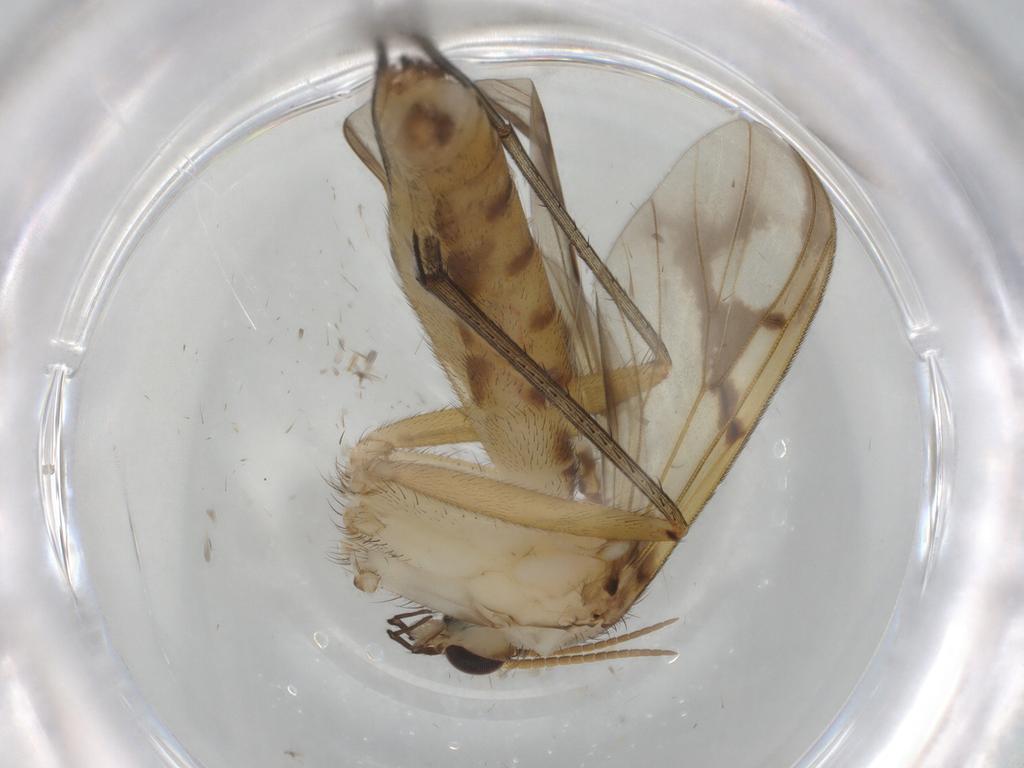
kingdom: Animalia
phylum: Arthropoda
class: Insecta
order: Diptera
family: Mycetophilidae
